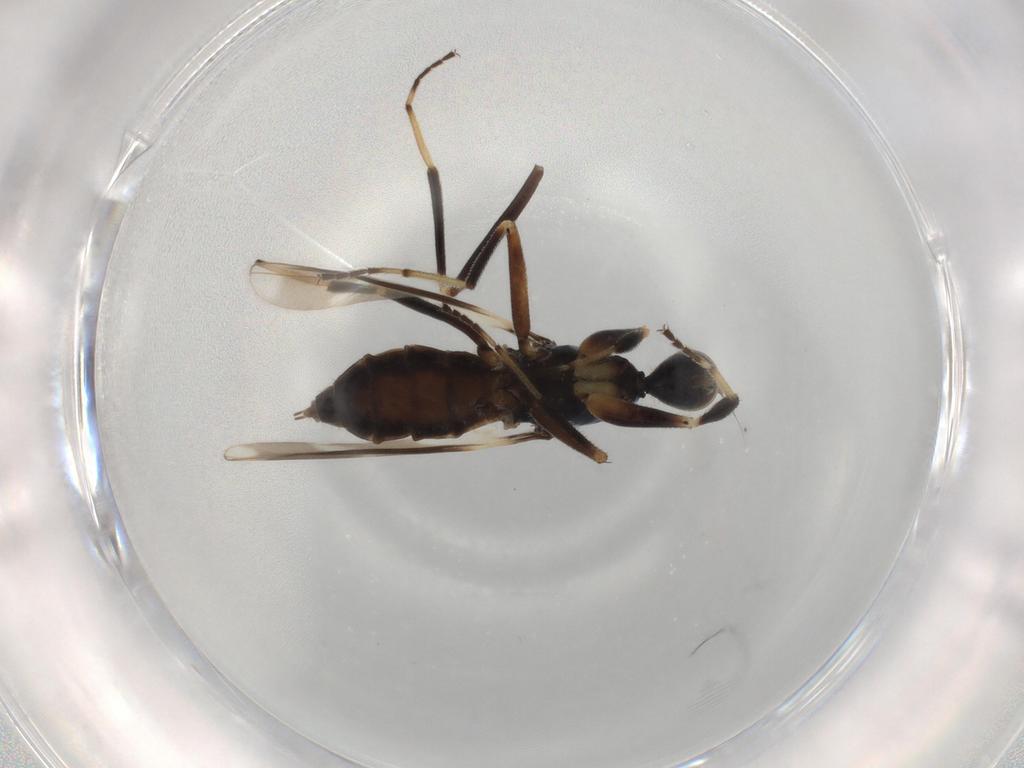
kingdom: Animalia
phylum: Arthropoda
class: Insecta
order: Diptera
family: Hybotidae
